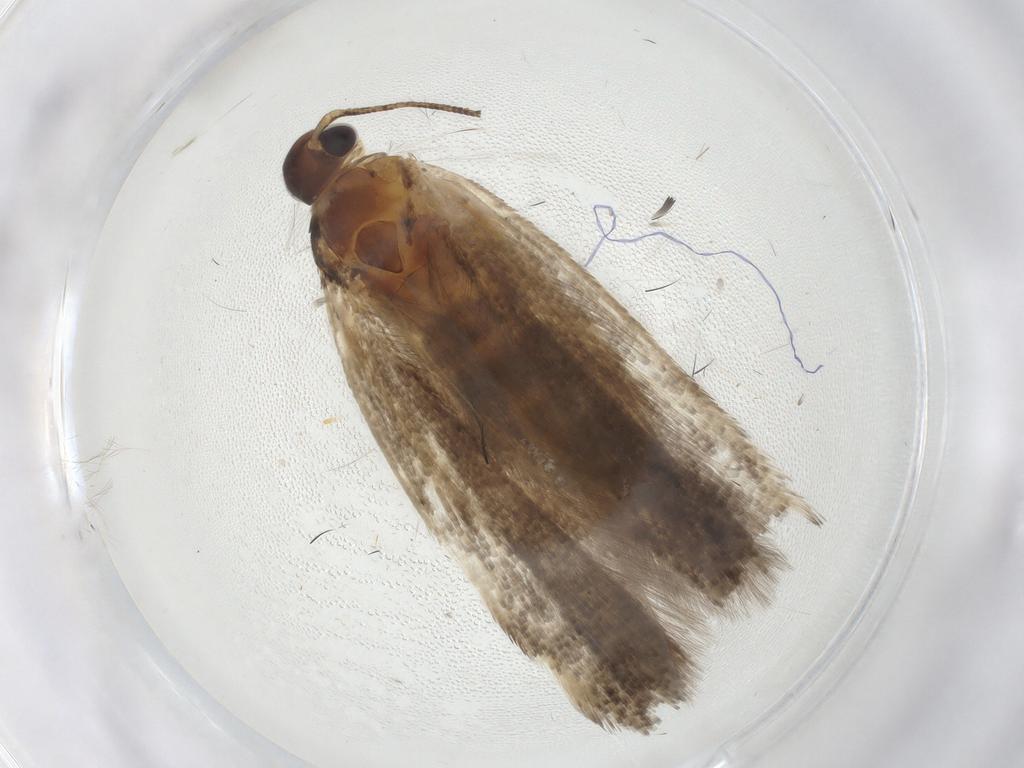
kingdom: Animalia
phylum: Arthropoda
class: Insecta
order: Lepidoptera
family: Gelechiidae
